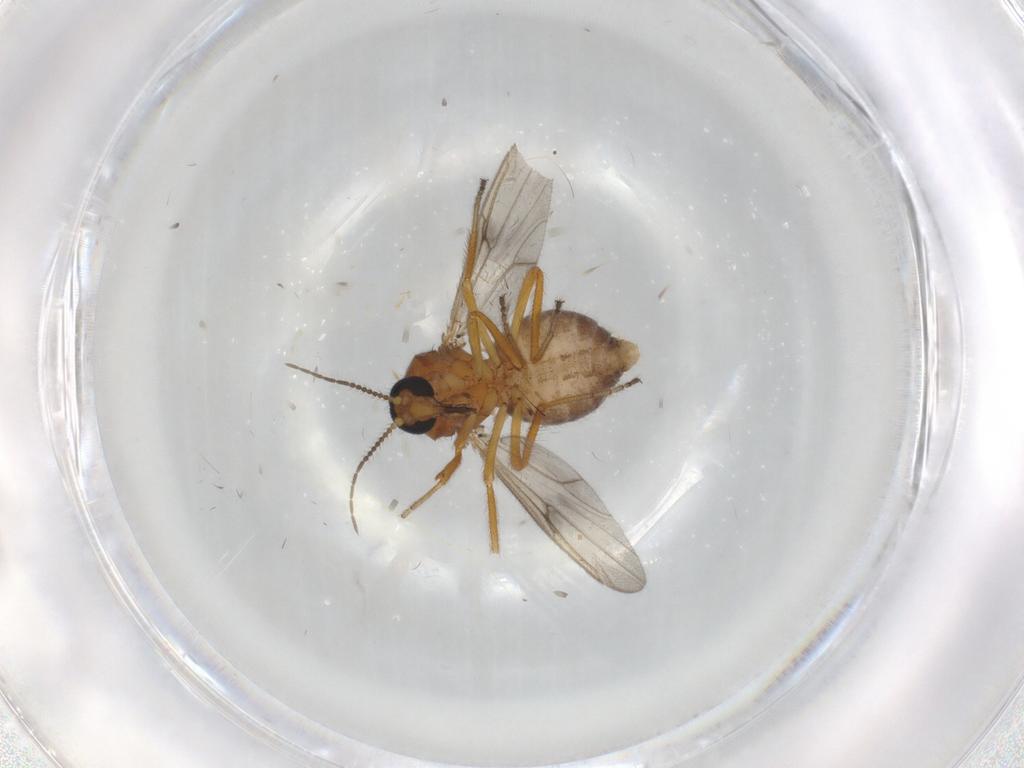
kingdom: Animalia
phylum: Arthropoda
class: Insecta
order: Diptera
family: Ceratopogonidae
